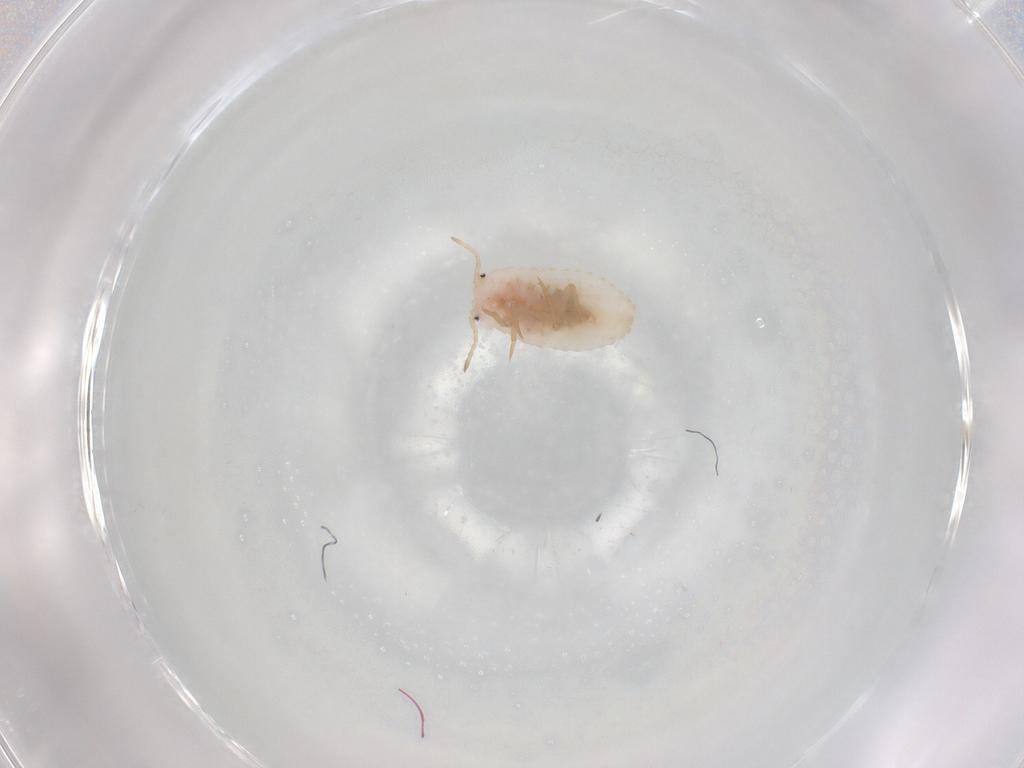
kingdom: Animalia
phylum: Arthropoda
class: Insecta
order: Hemiptera
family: Coccoidea_incertae_sedis
